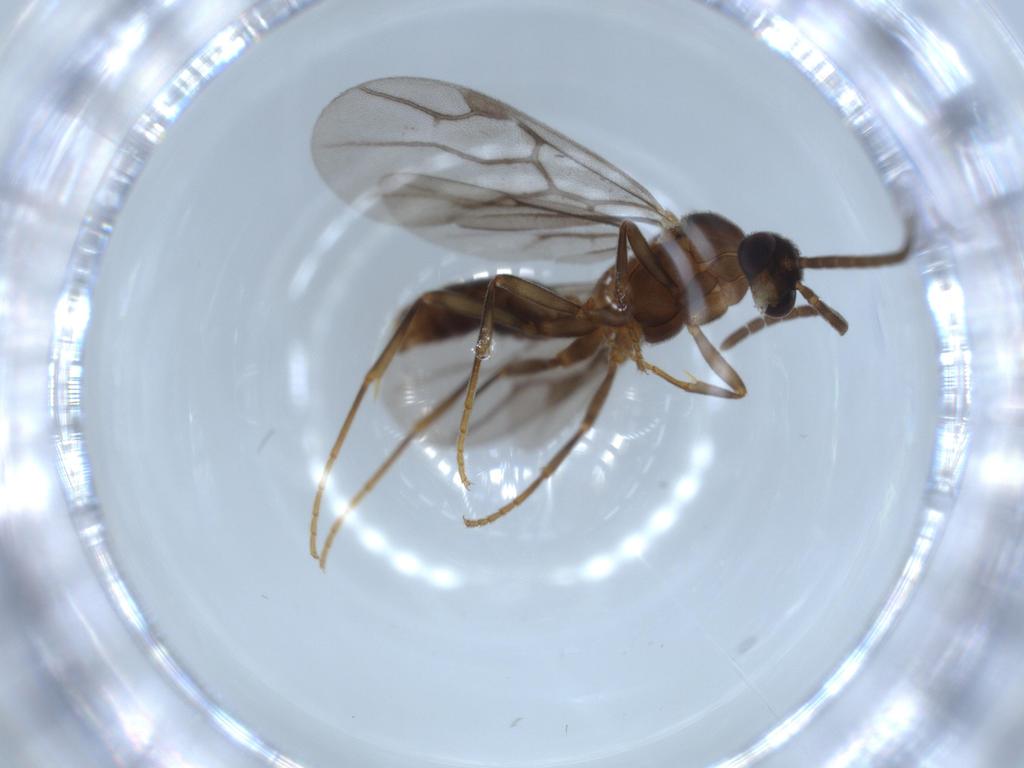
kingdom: Animalia
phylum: Arthropoda
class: Insecta
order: Hymenoptera
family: Formicidae
